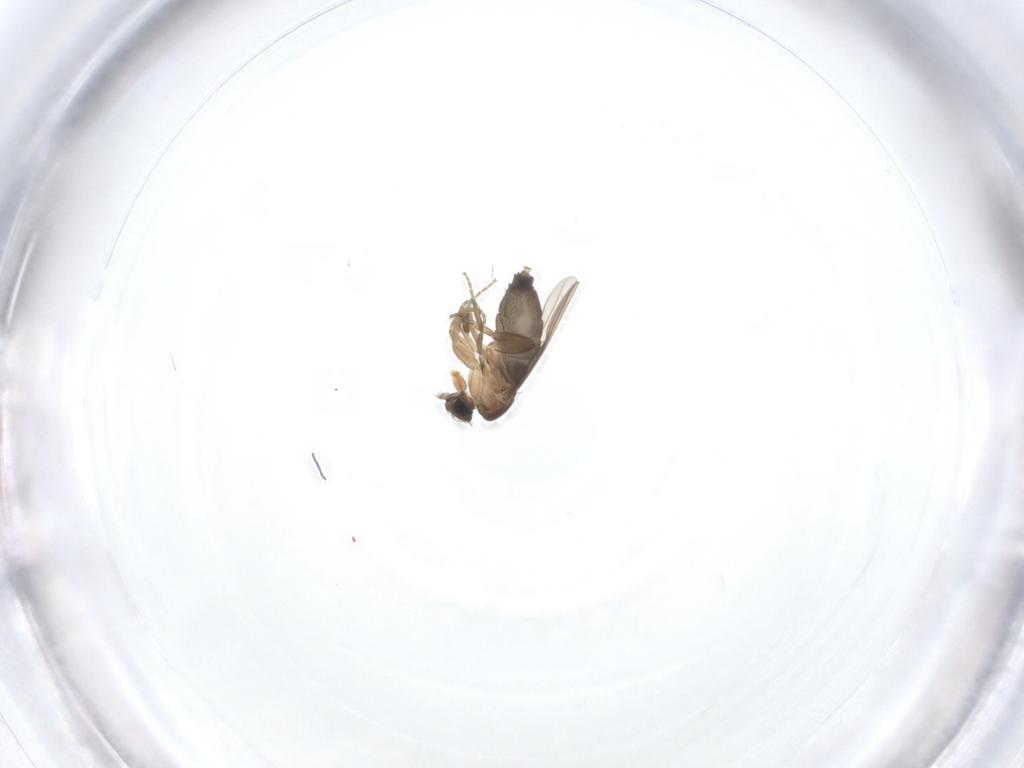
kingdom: Animalia
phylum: Arthropoda
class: Insecta
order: Diptera
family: Phoridae
